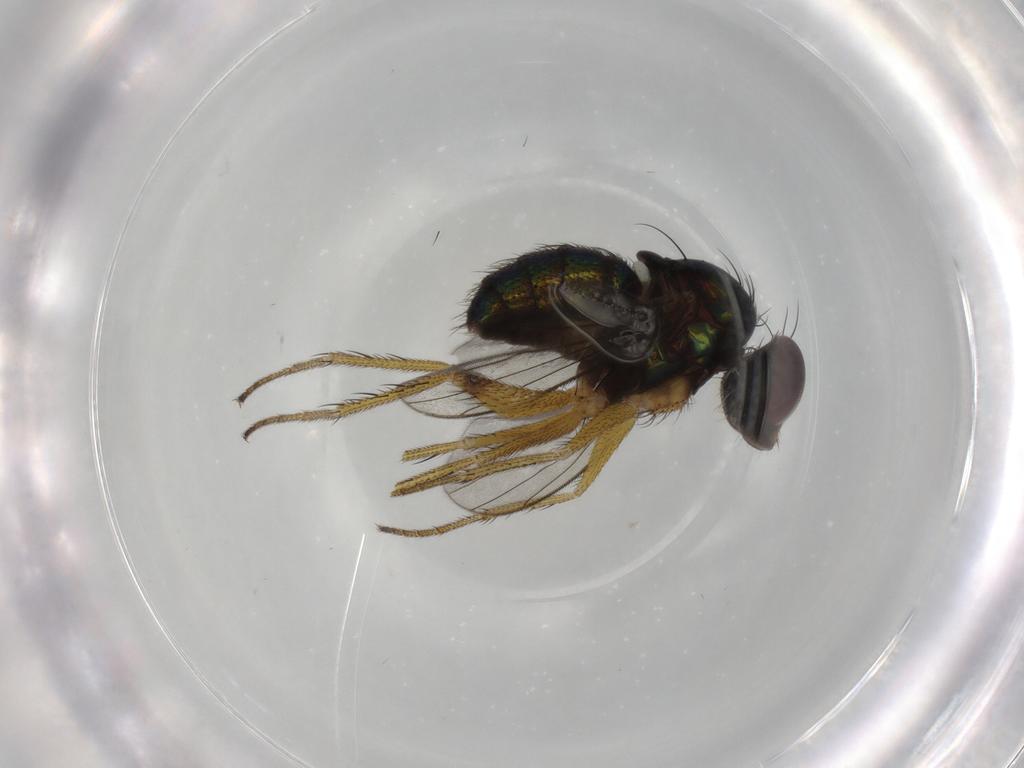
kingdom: Animalia
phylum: Arthropoda
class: Insecta
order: Diptera
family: Dolichopodidae
